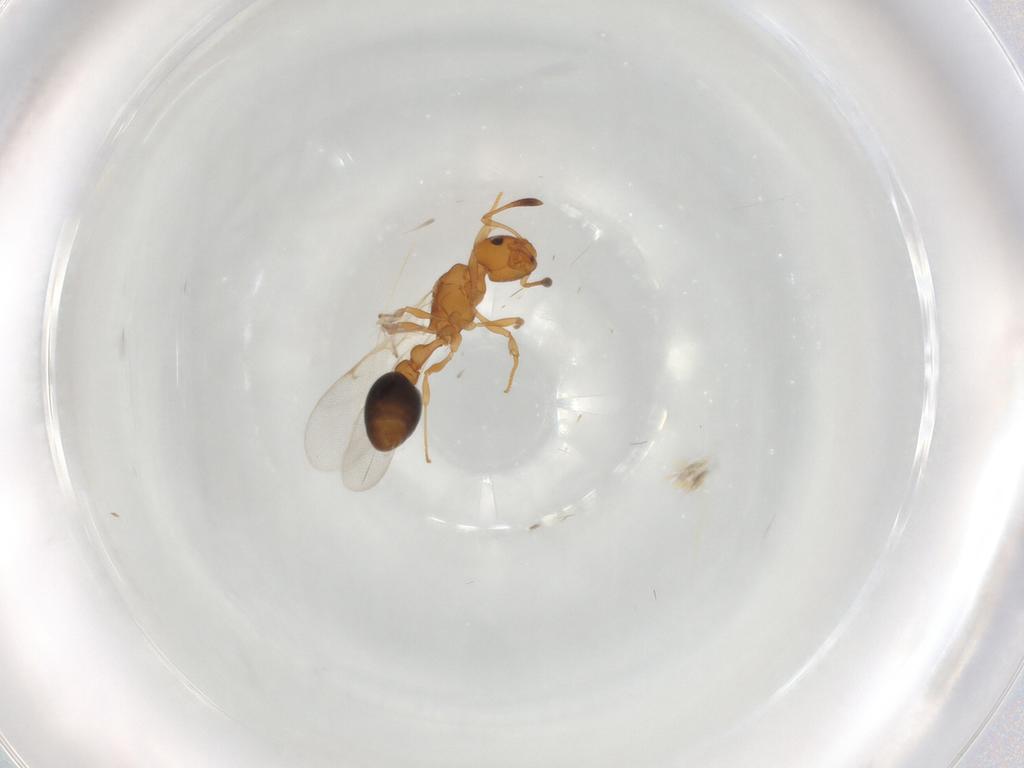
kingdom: Animalia
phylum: Arthropoda
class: Insecta
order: Hymenoptera
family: Formicidae
